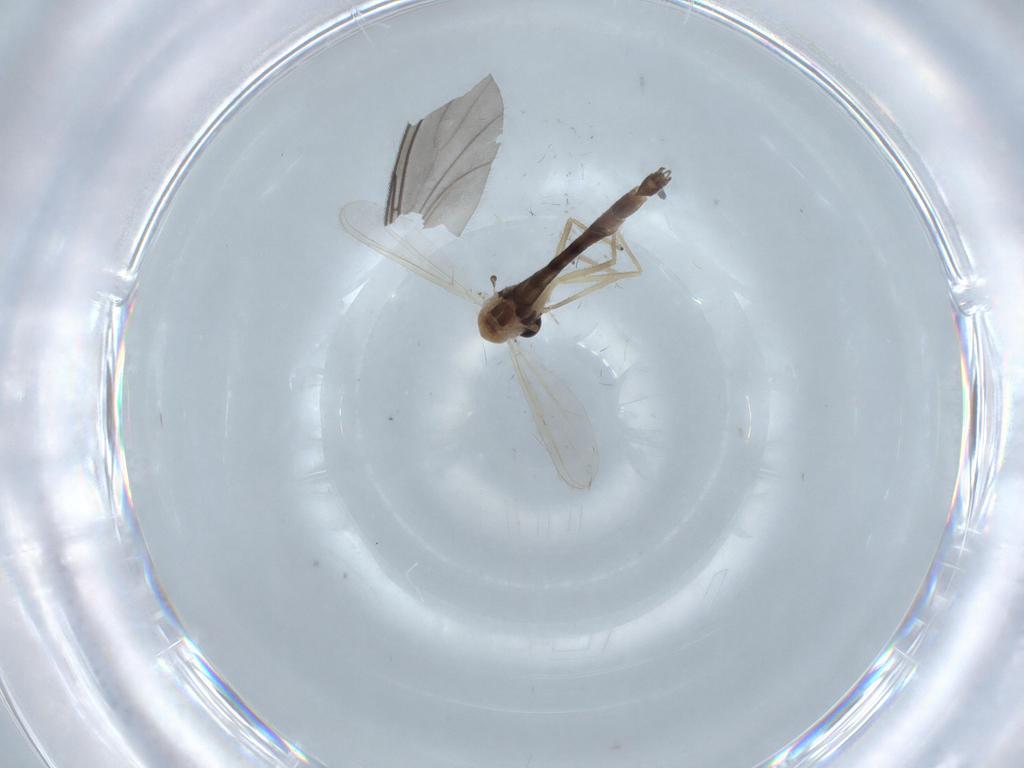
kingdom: Animalia
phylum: Arthropoda
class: Insecta
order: Diptera
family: Chironomidae
